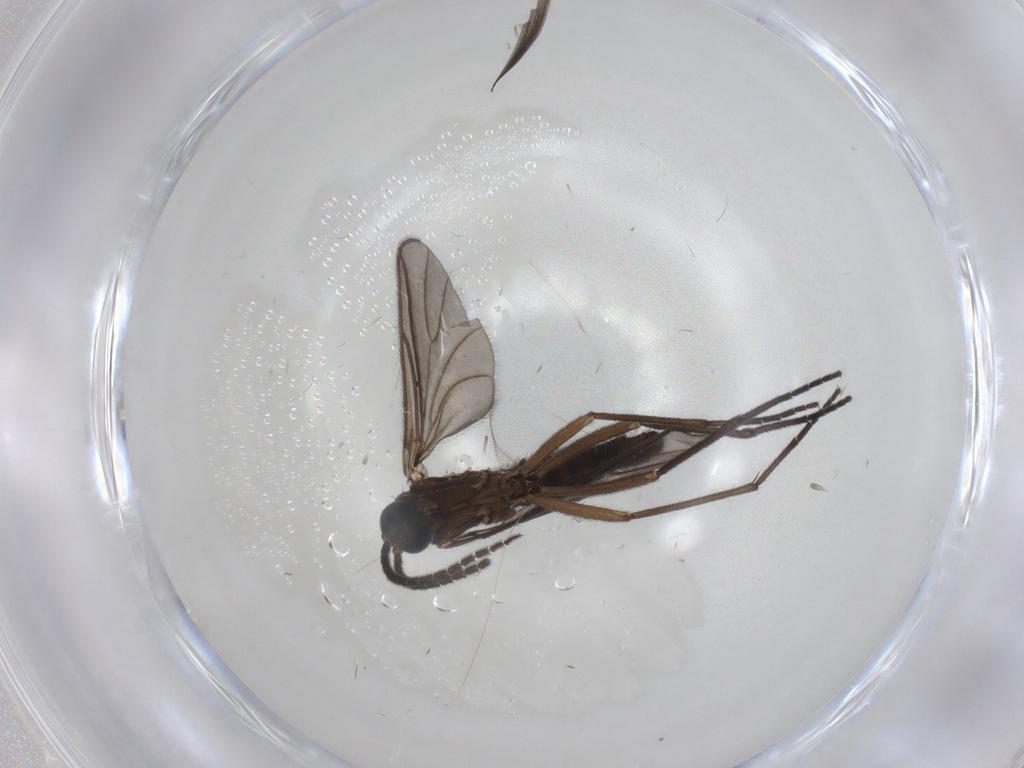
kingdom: Animalia
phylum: Arthropoda
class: Insecta
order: Diptera
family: Sciaridae
